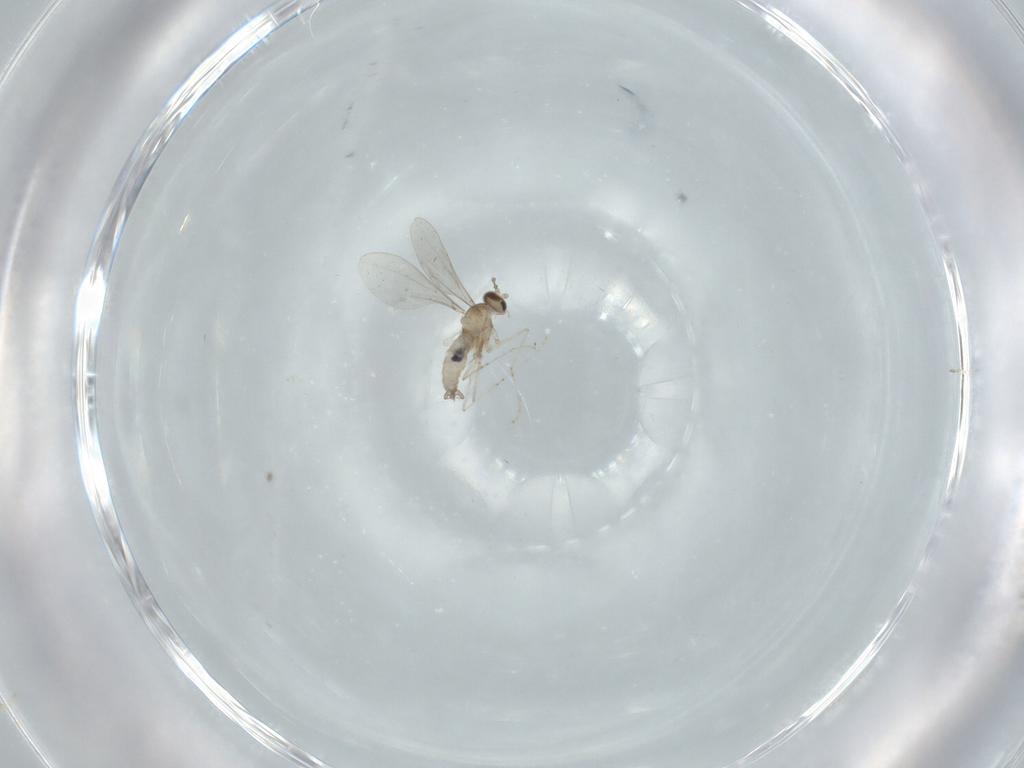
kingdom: Animalia
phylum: Arthropoda
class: Insecta
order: Diptera
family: Cecidomyiidae
